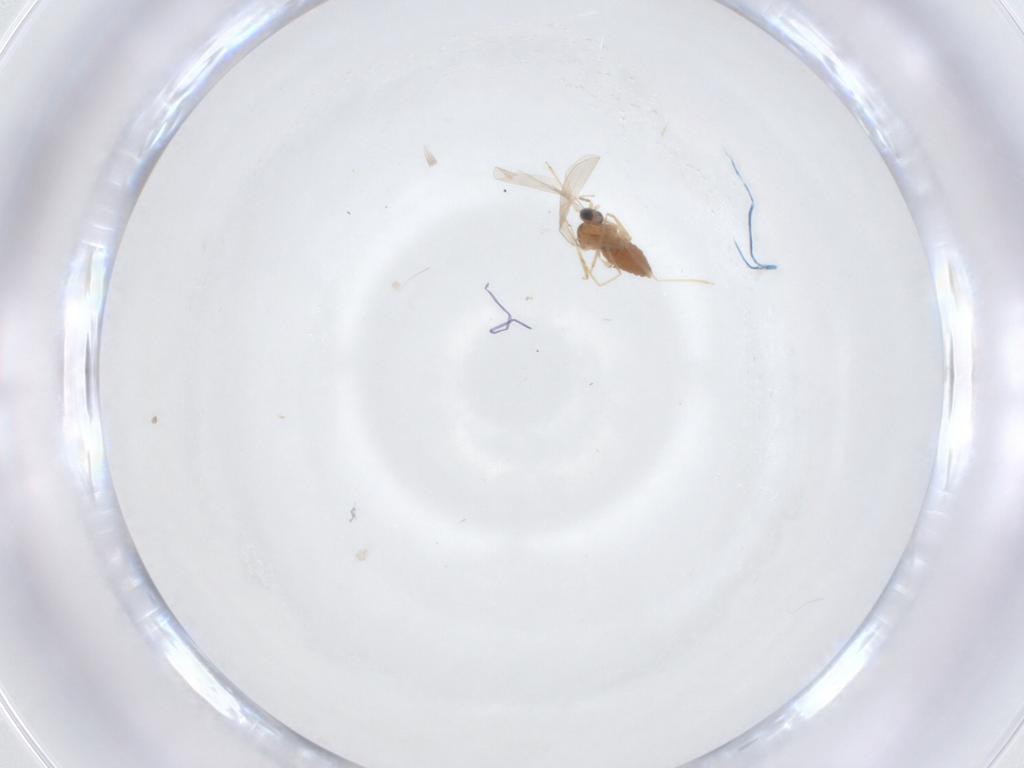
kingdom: Animalia
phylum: Arthropoda
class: Insecta
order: Diptera
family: Cecidomyiidae
